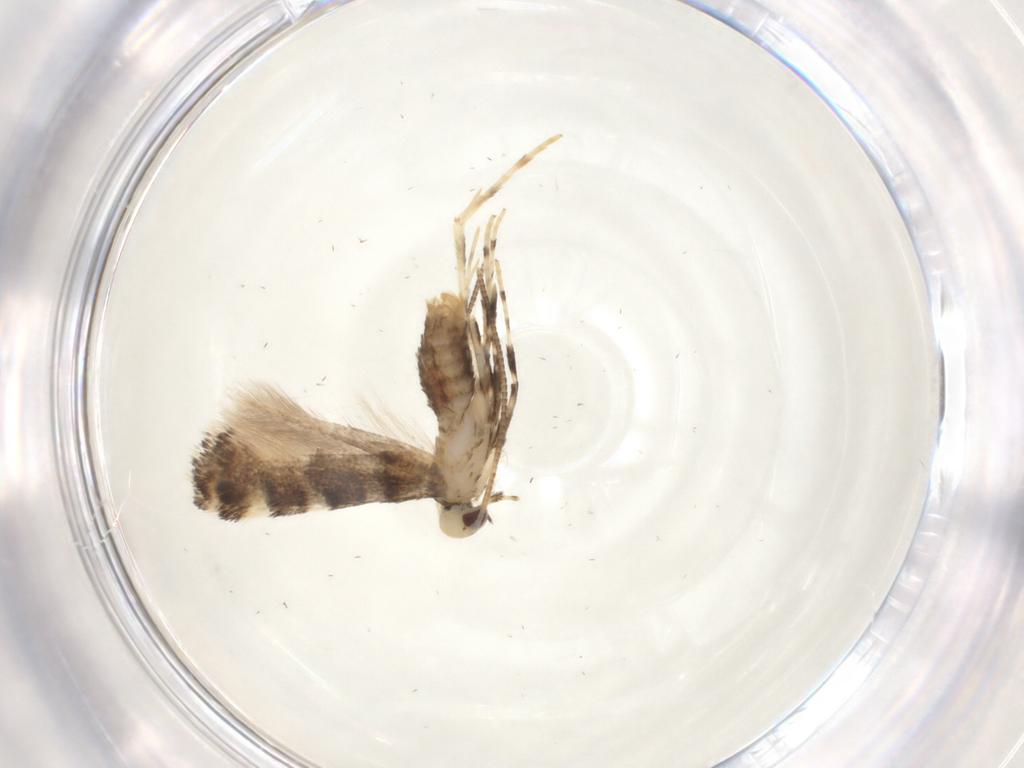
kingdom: Animalia
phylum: Arthropoda
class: Insecta
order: Lepidoptera
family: Gracillariidae
